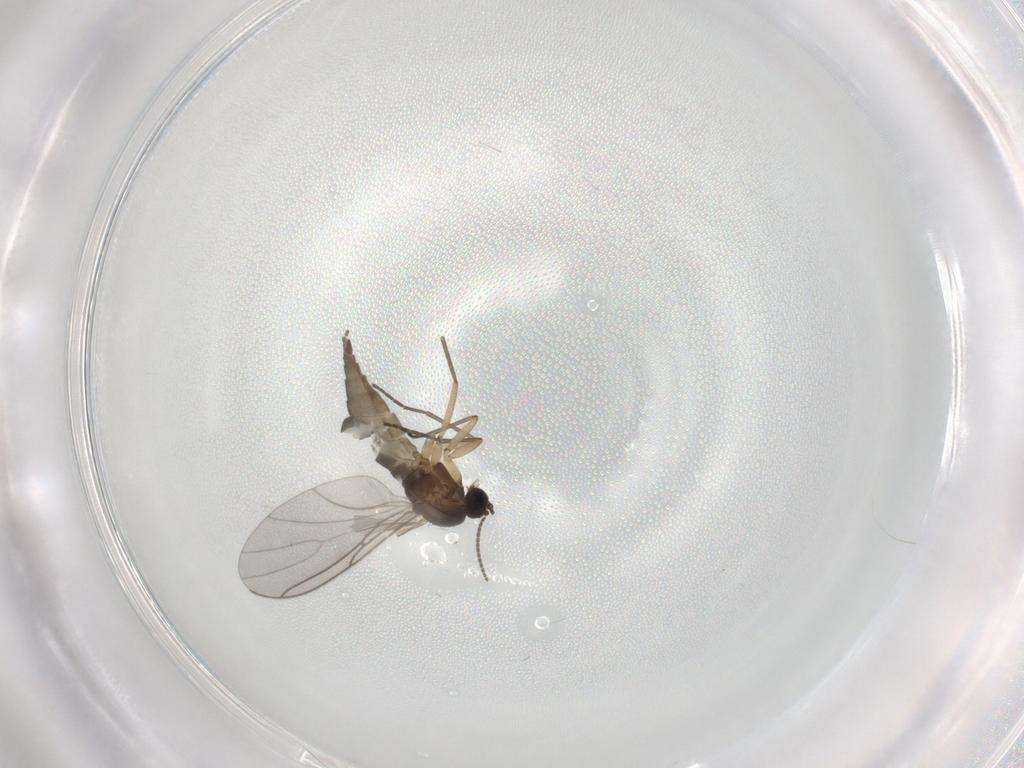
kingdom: Animalia
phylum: Arthropoda
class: Insecta
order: Diptera
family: Sciaridae
